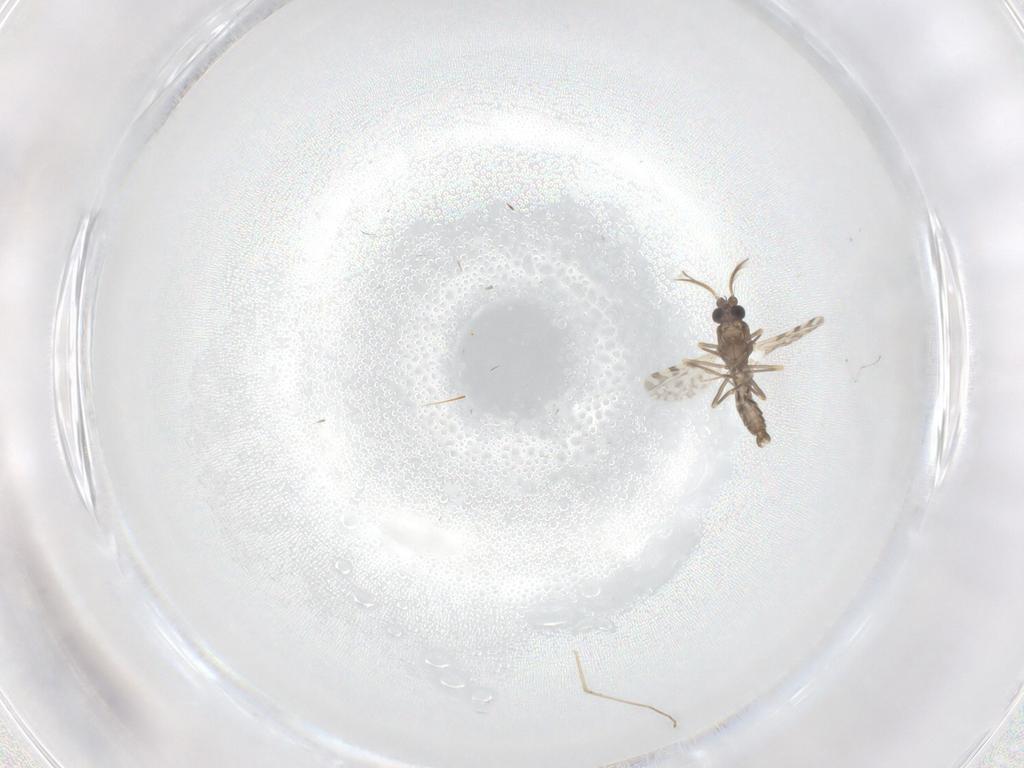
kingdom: Animalia
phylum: Arthropoda
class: Insecta
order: Diptera
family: Ceratopogonidae
